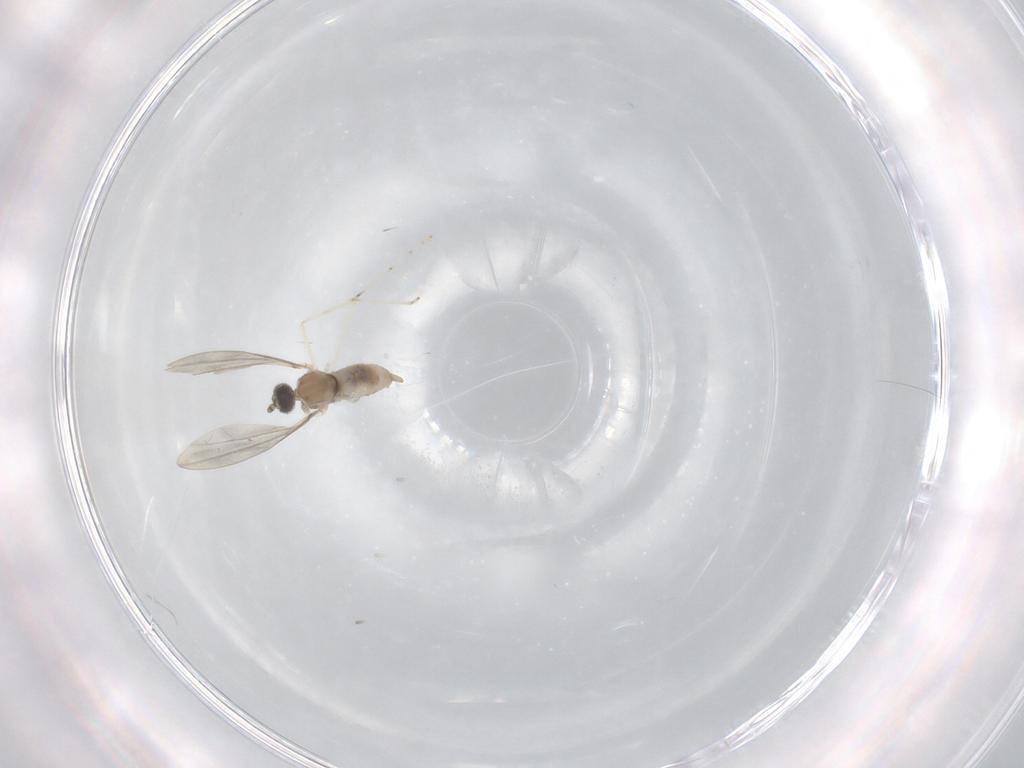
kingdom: Animalia
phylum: Arthropoda
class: Insecta
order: Diptera
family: Cecidomyiidae
